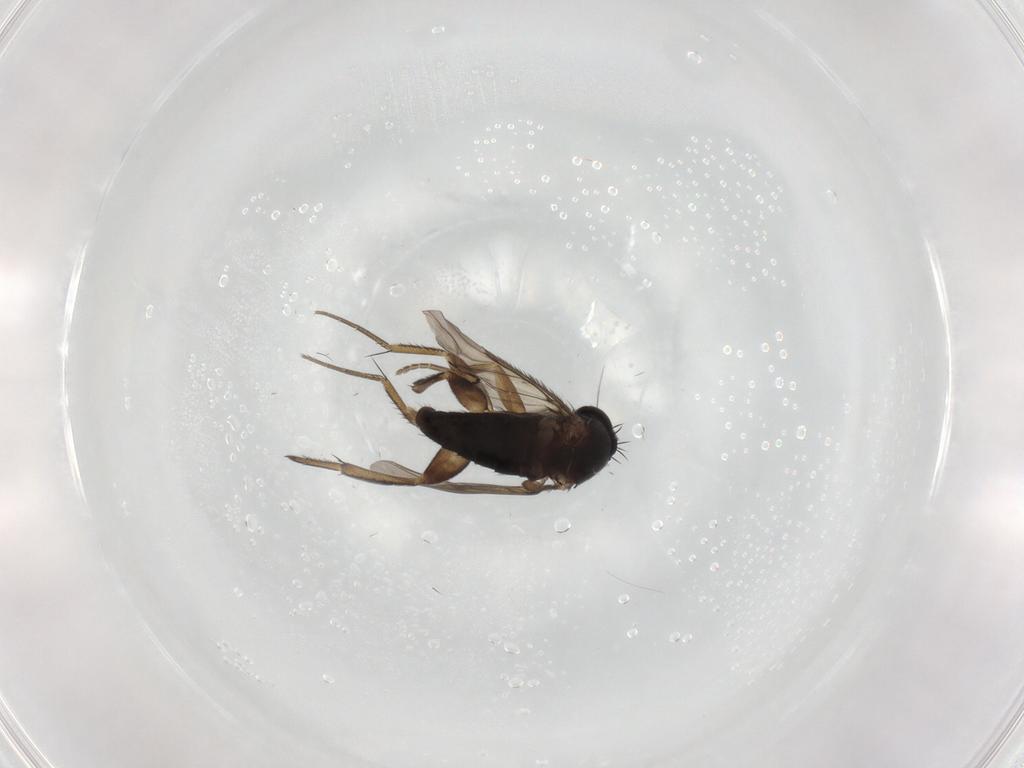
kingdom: Animalia
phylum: Arthropoda
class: Insecta
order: Diptera
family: Phoridae
